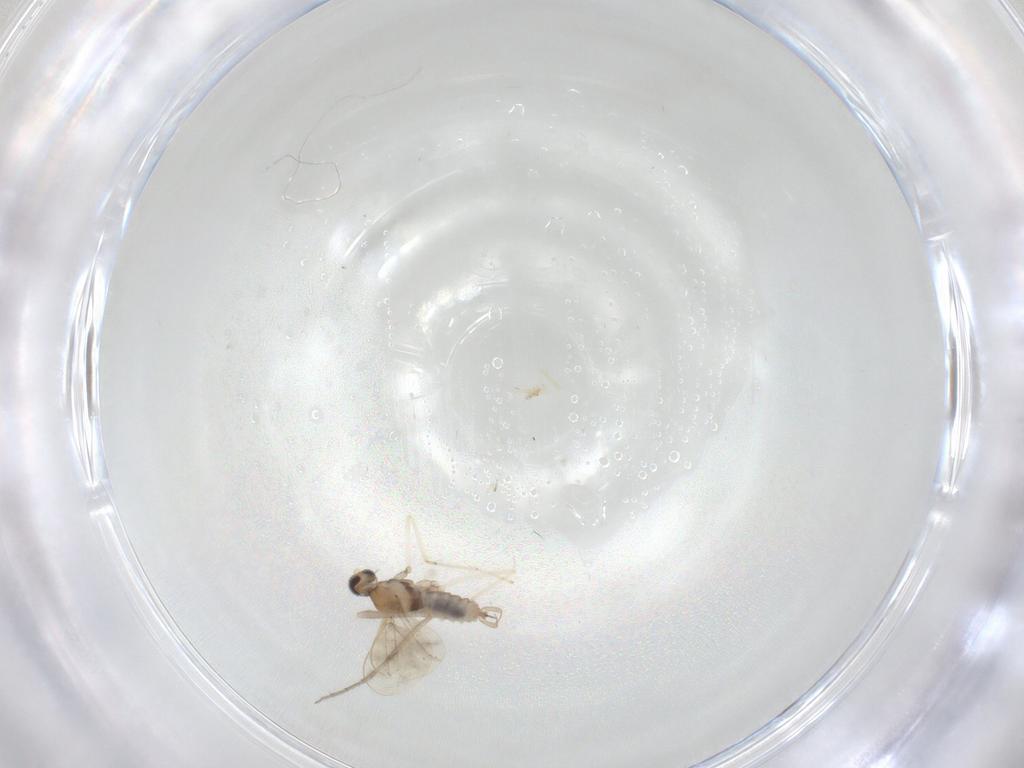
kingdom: Animalia
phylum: Arthropoda
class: Insecta
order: Diptera
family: Chironomidae
